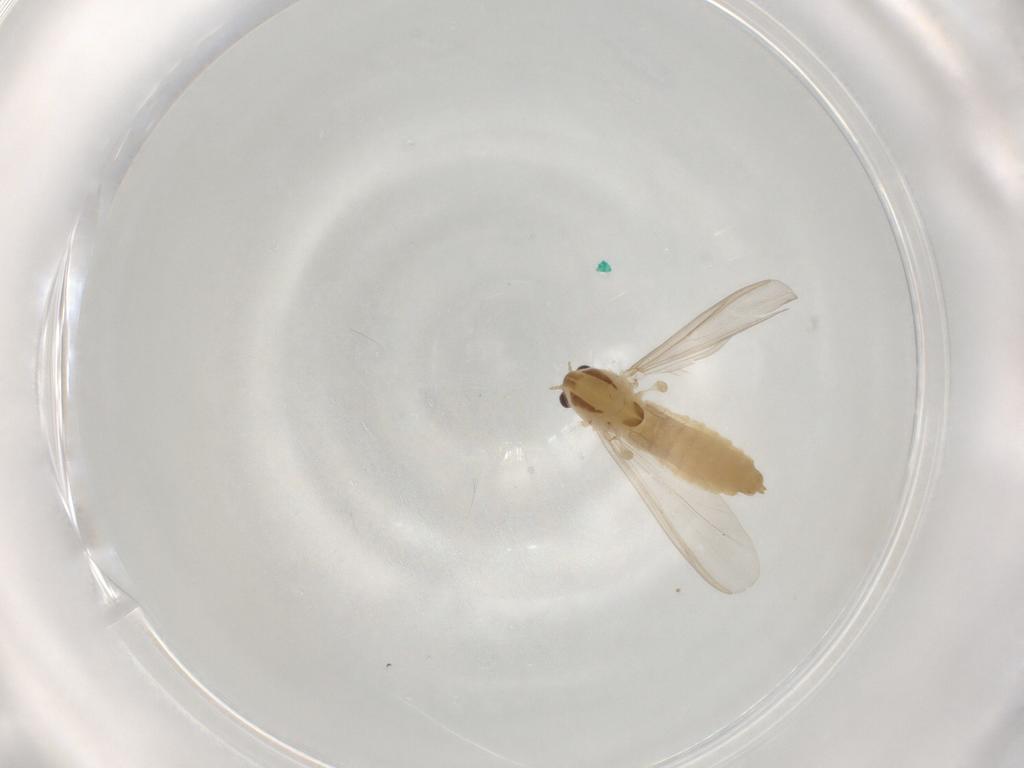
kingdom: Animalia
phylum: Arthropoda
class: Insecta
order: Diptera
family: Chironomidae
